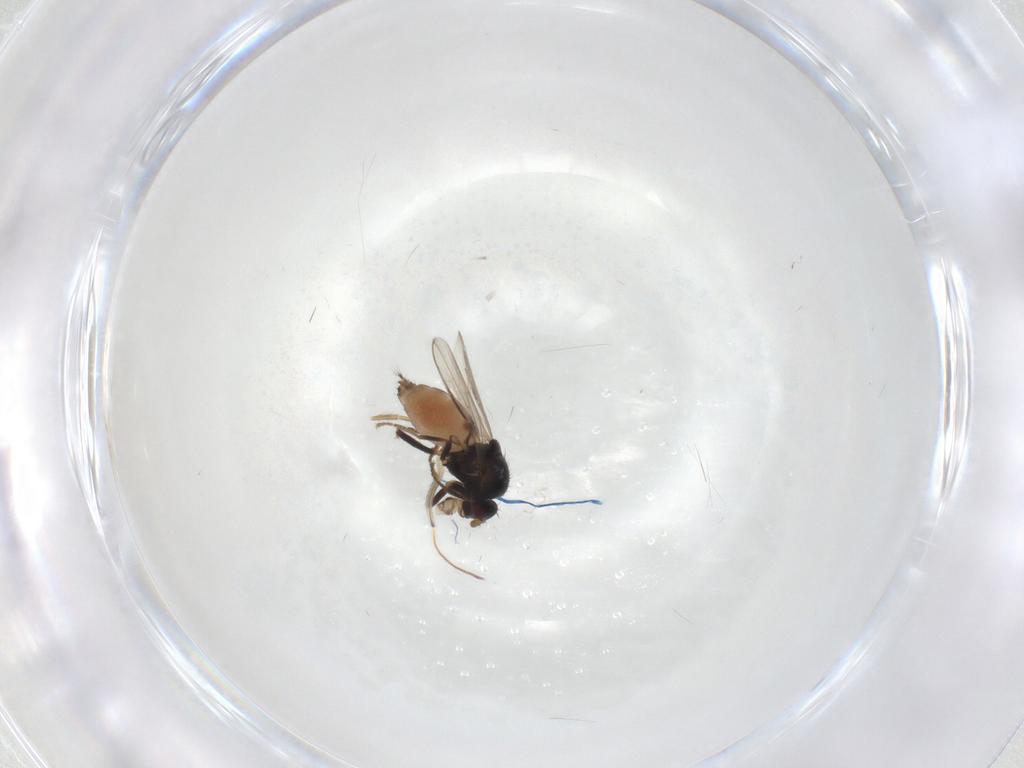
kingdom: Animalia
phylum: Arthropoda
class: Insecta
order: Diptera
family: Sphaeroceridae
